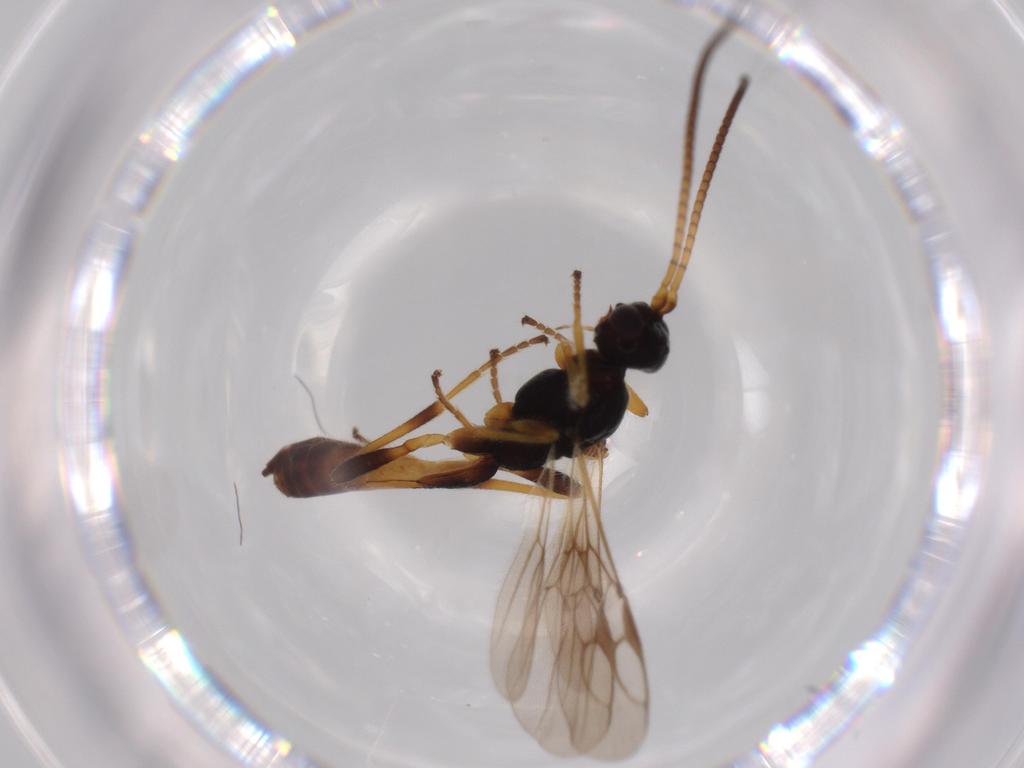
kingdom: Animalia
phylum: Arthropoda
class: Insecta
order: Hymenoptera
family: Braconidae
